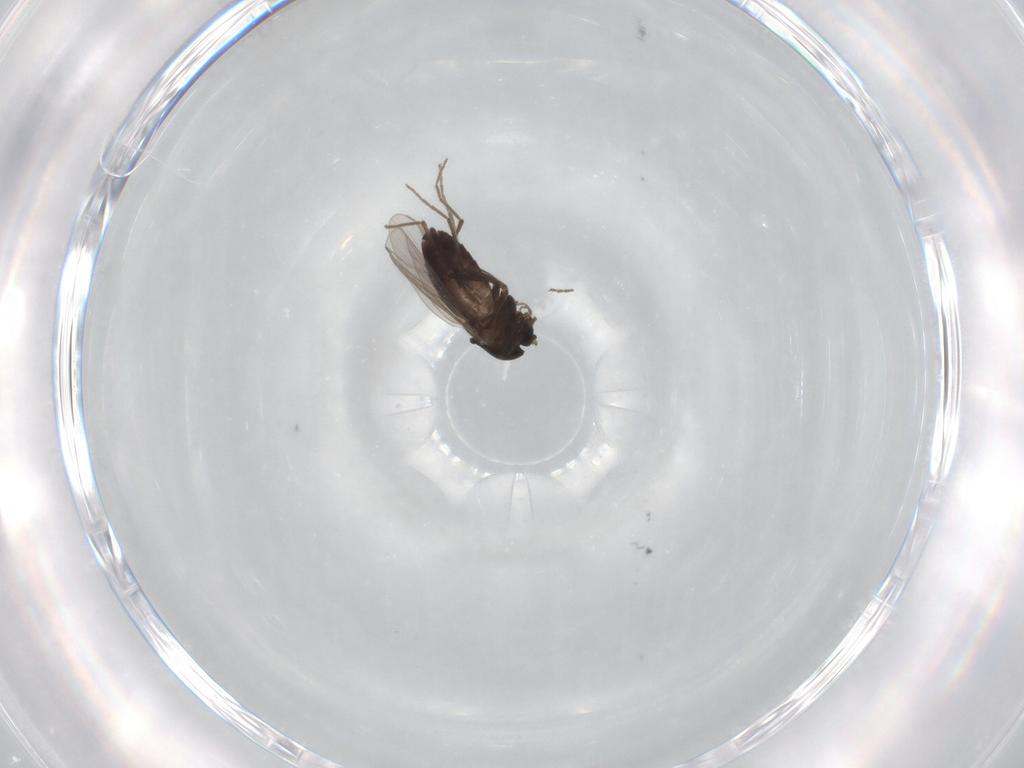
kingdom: Animalia
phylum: Arthropoda
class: Insecta
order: Diptera
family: Chironomidae
